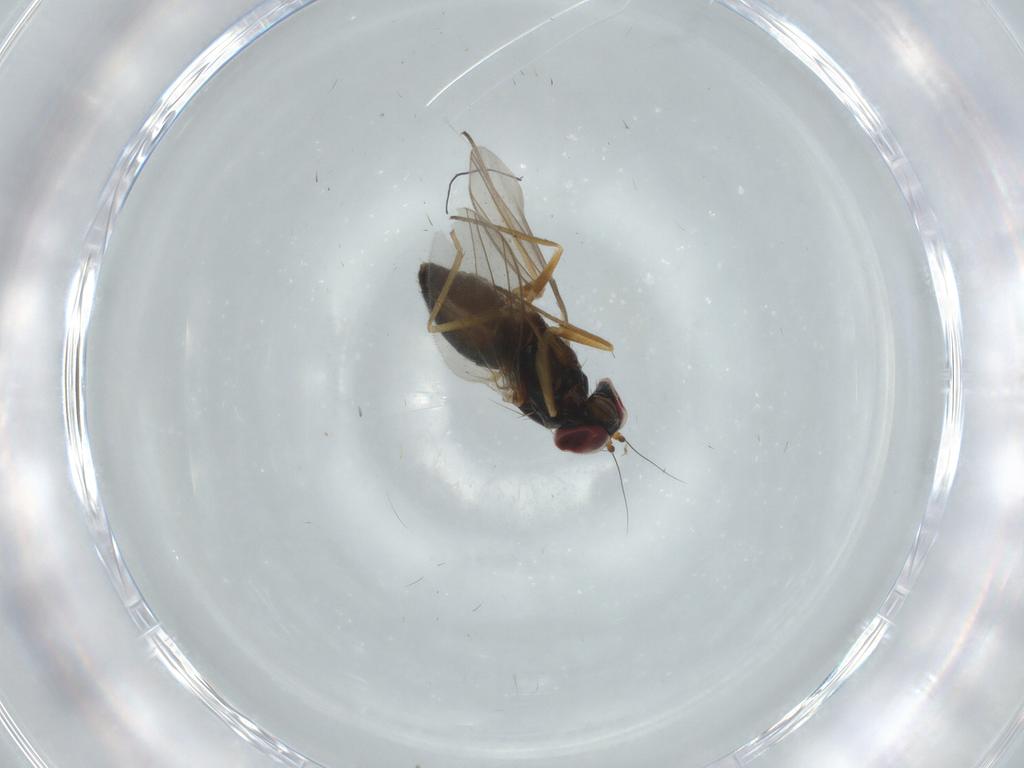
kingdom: Animalia
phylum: Arthropoda
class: Insecta
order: Diptera
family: Dolichopodidae
